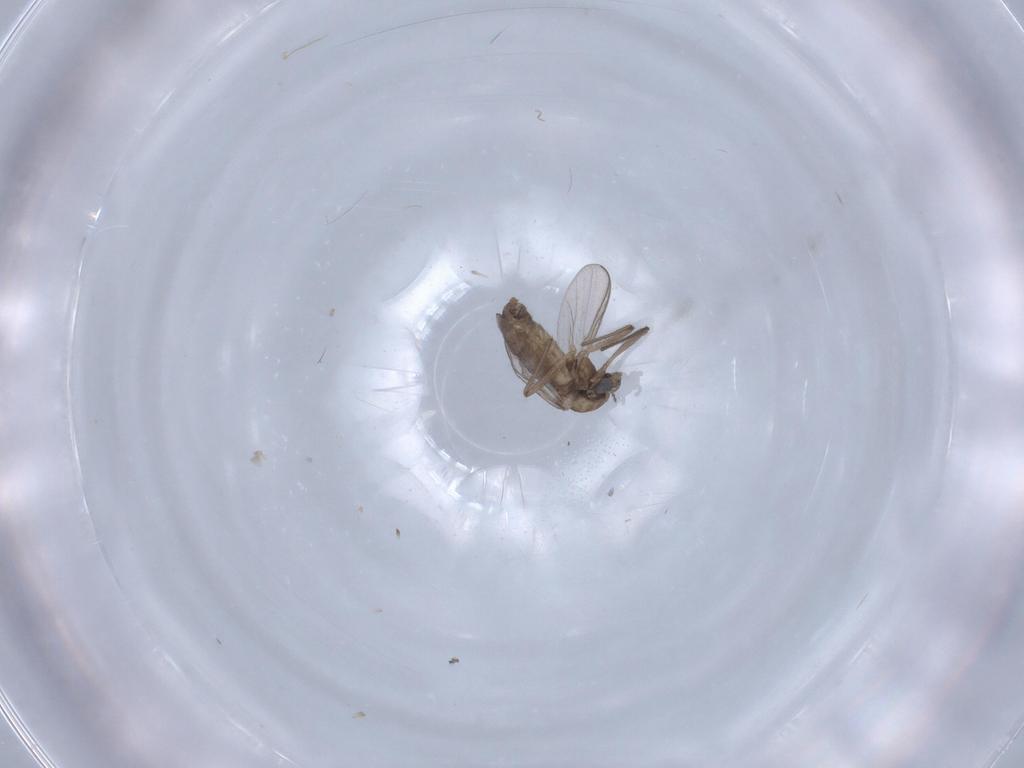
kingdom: Animalia
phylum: Arthropoda
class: Insecta
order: Diptera
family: Chironomidae
